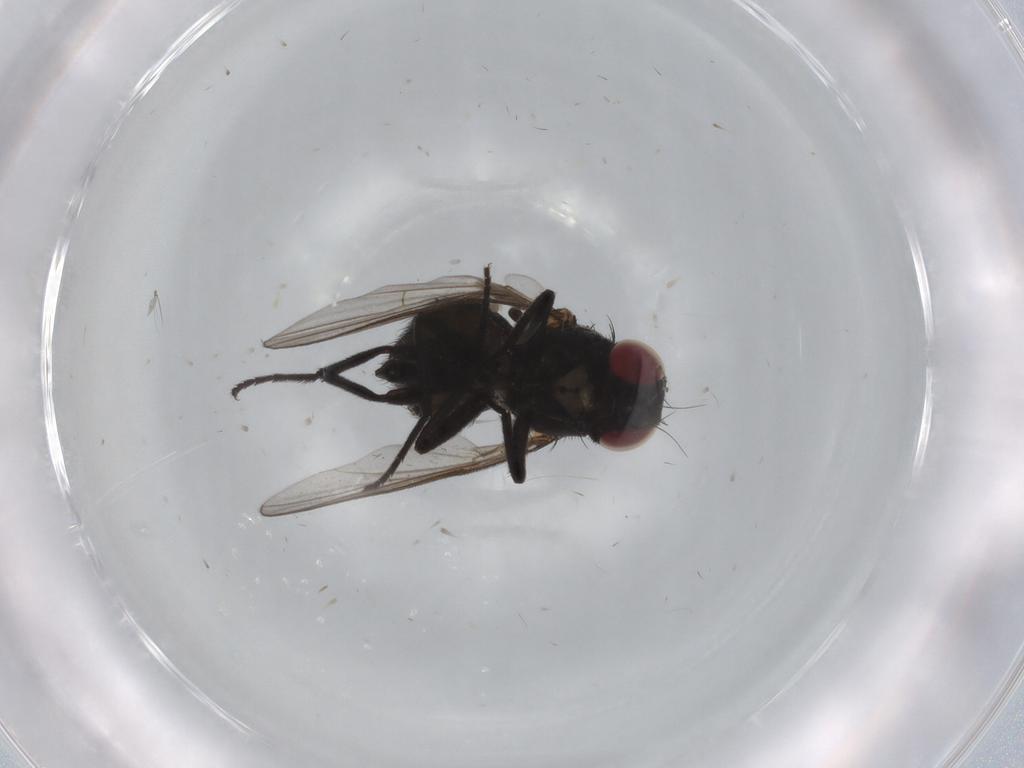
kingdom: Animalia
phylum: Arthropoda
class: Insecta
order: Diptera
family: Agromyzidae
